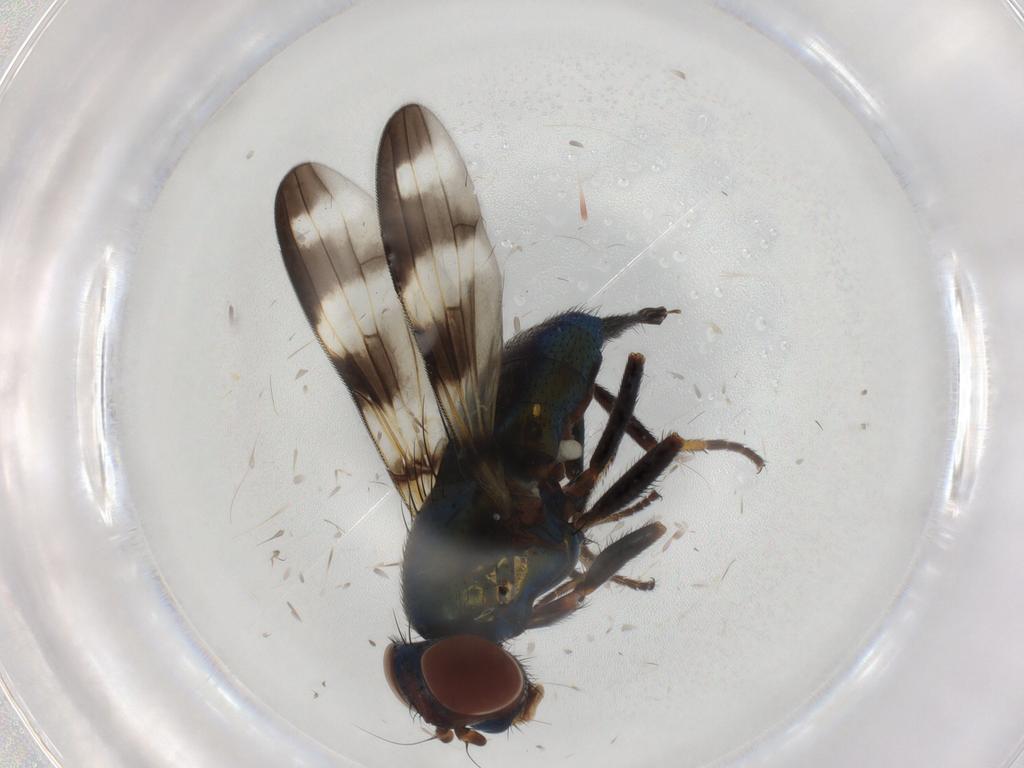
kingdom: Animalia
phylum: Arthropoda
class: Insecta
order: Diptera
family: Ulidiidae
